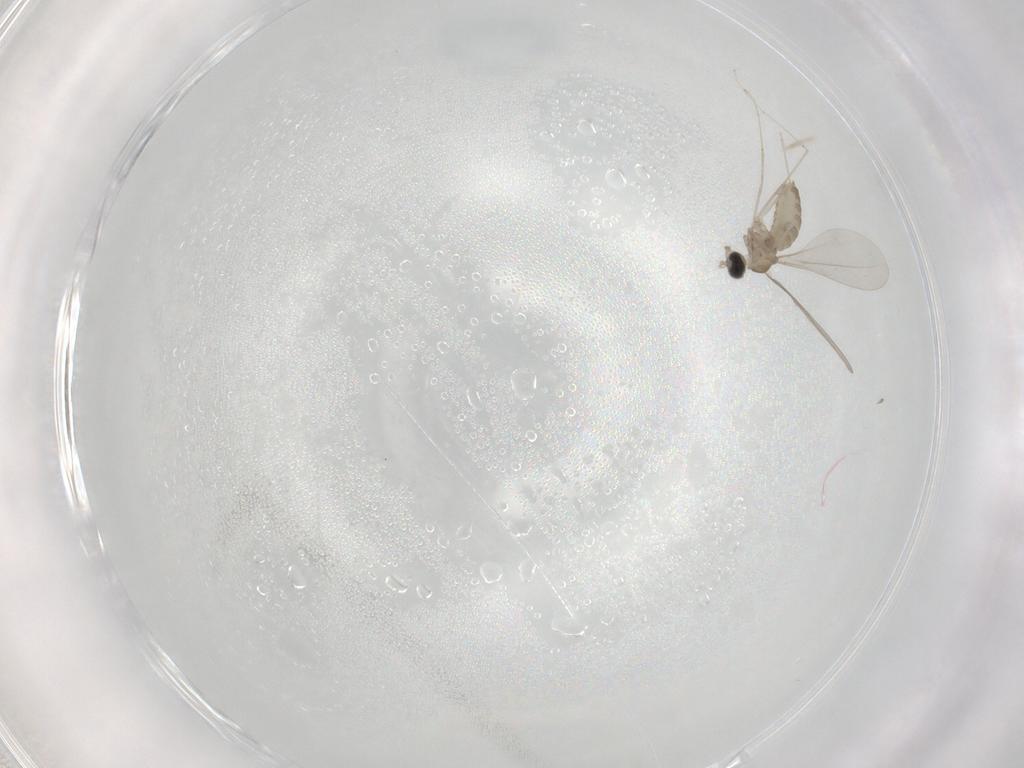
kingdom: Animalia
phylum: Arthropoda
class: Insecta
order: Diptera
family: Cecidomyiidae
